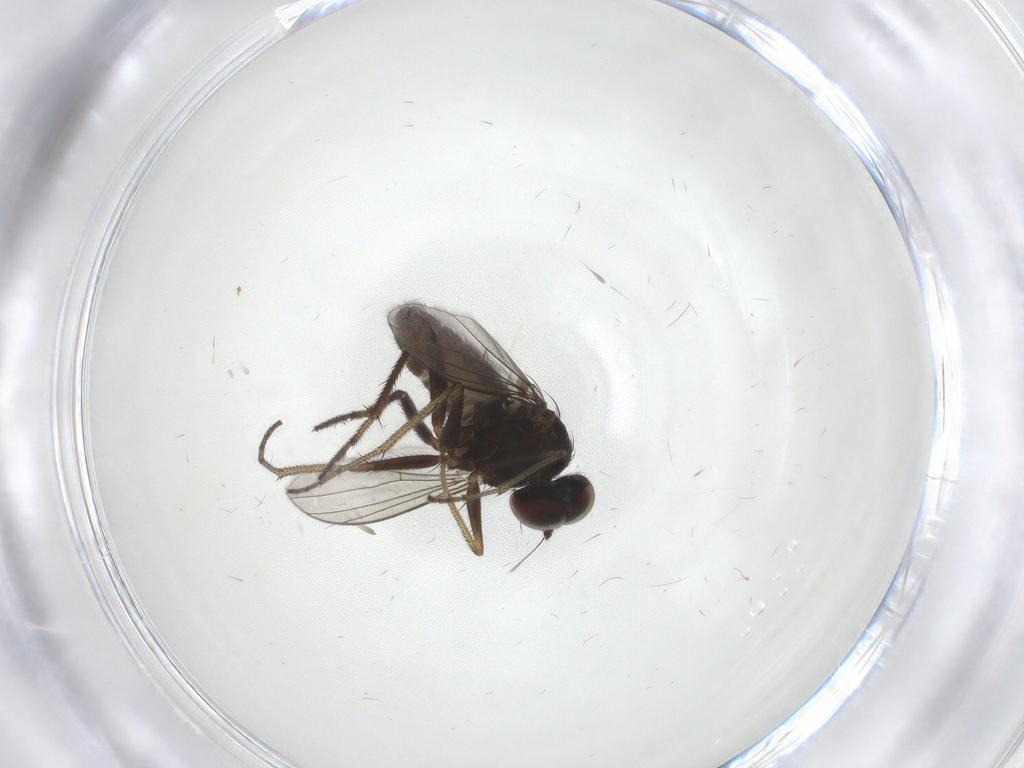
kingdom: Animalia
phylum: Arthropoda
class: Insecta
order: Diptera
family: Dolichopodidae
